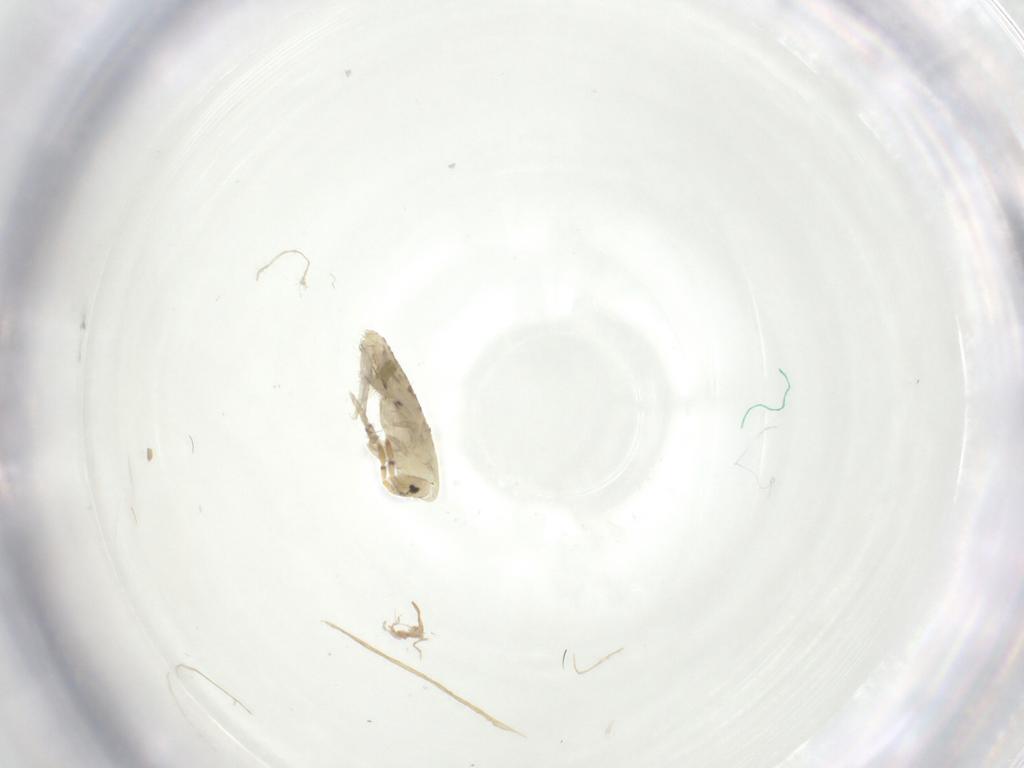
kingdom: Animalia
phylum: Arthropoda
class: Collembola
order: Entomobryomorpha
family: Entomobryidae
